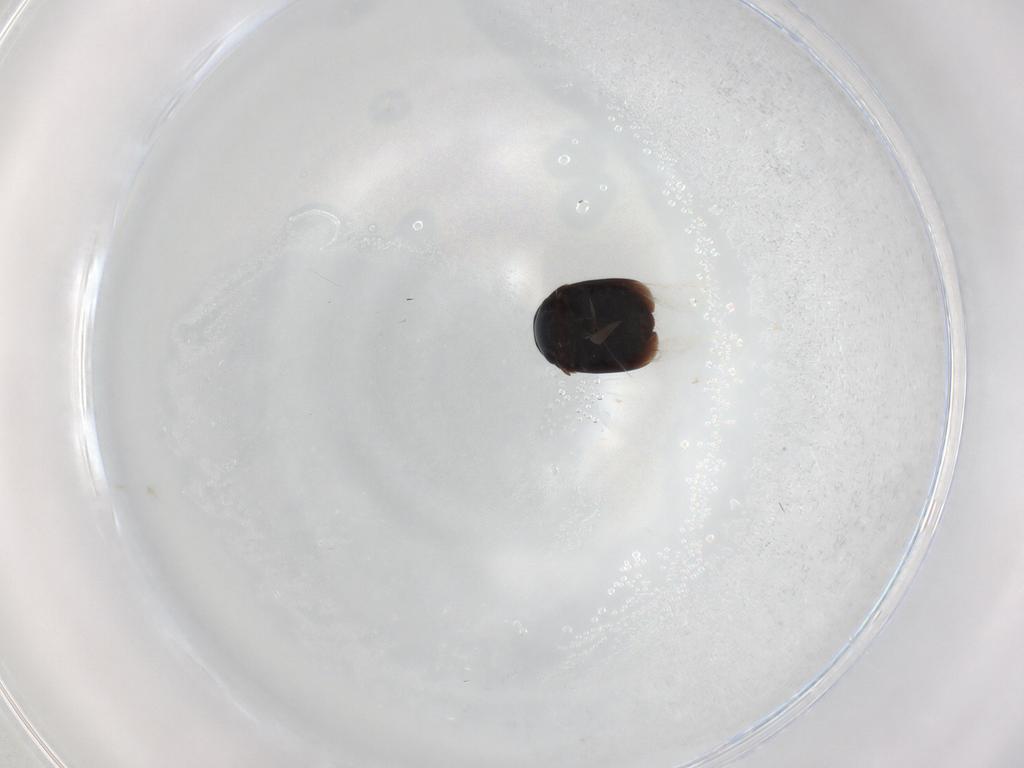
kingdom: Animalia
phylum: Arthropoda
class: Insecta
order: Coleoptera
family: Cybocephalidae
